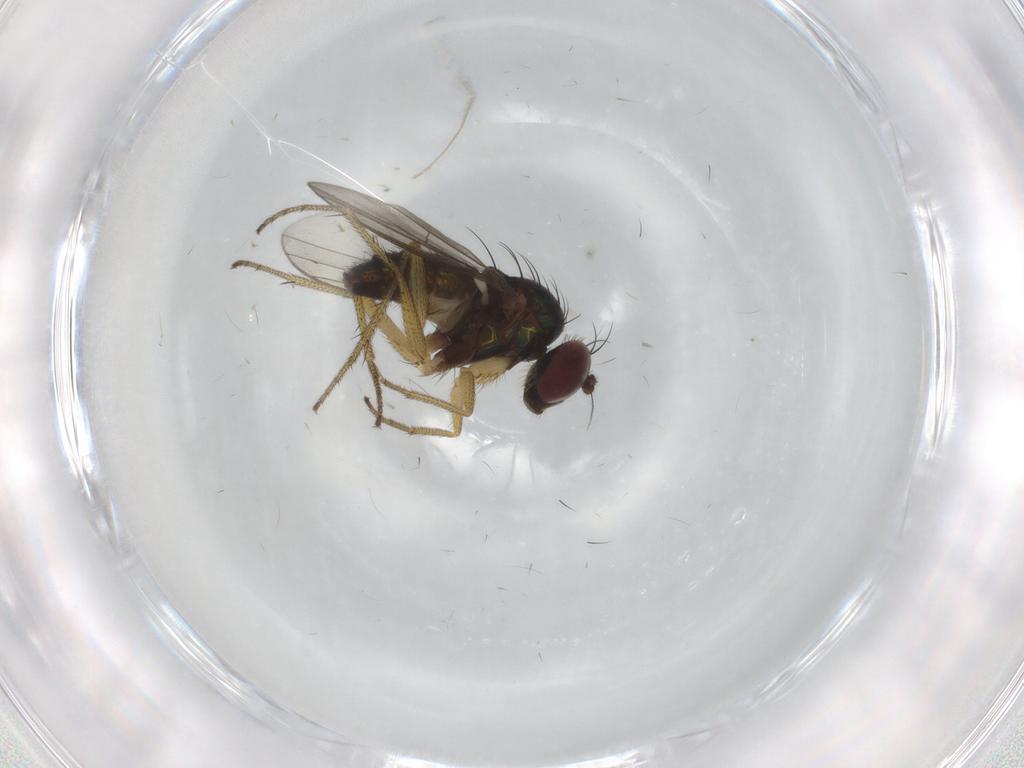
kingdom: Animalia
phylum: Arthropoda
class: Insecta
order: Diptera
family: Chironomidae
